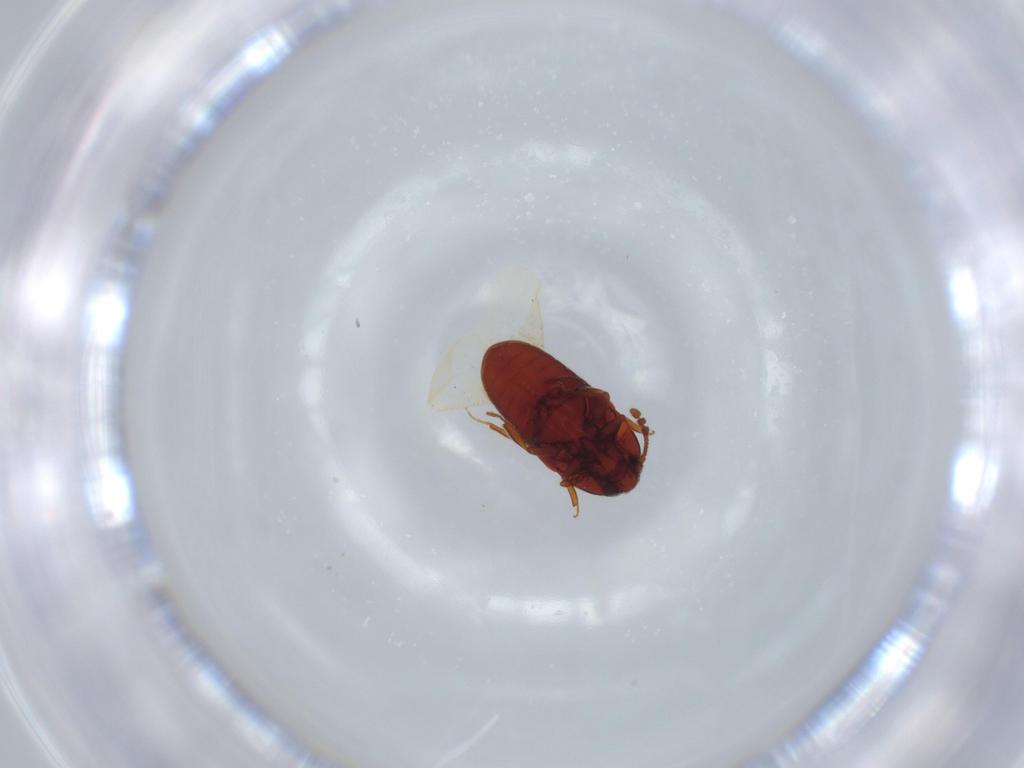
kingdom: Animalia
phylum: Arthropoda
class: Insecta
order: Coleoptera
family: Throscidae
